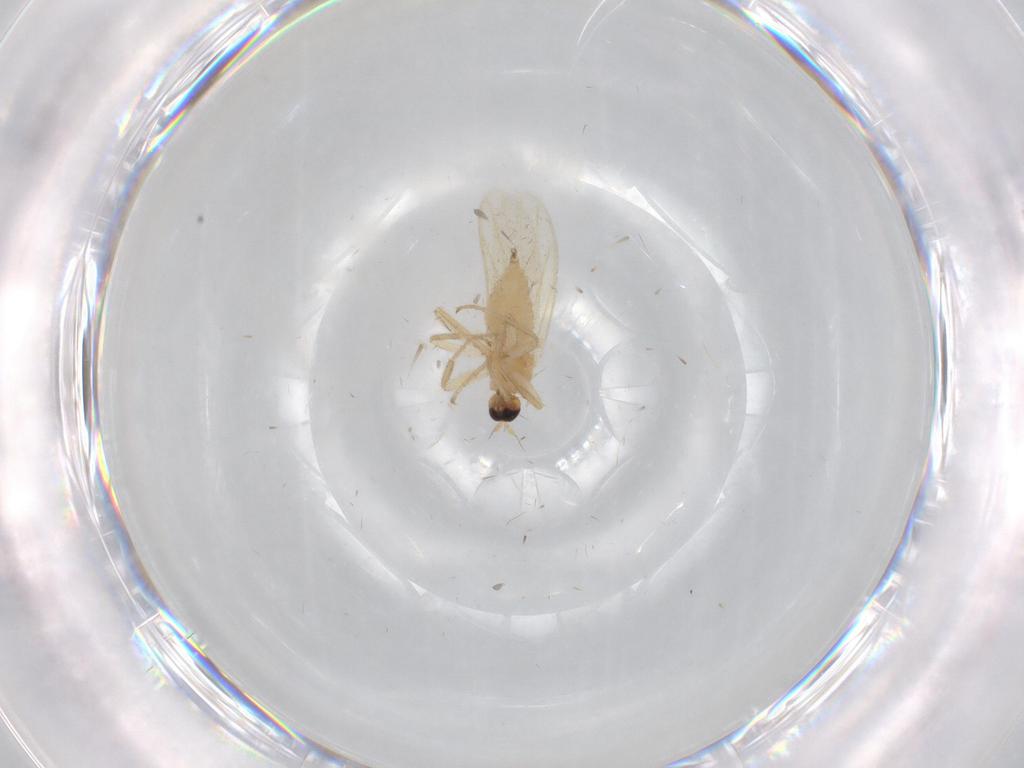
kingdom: Animalia
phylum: Arthropoda
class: Insecta
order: Diptera
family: Hybotidae
